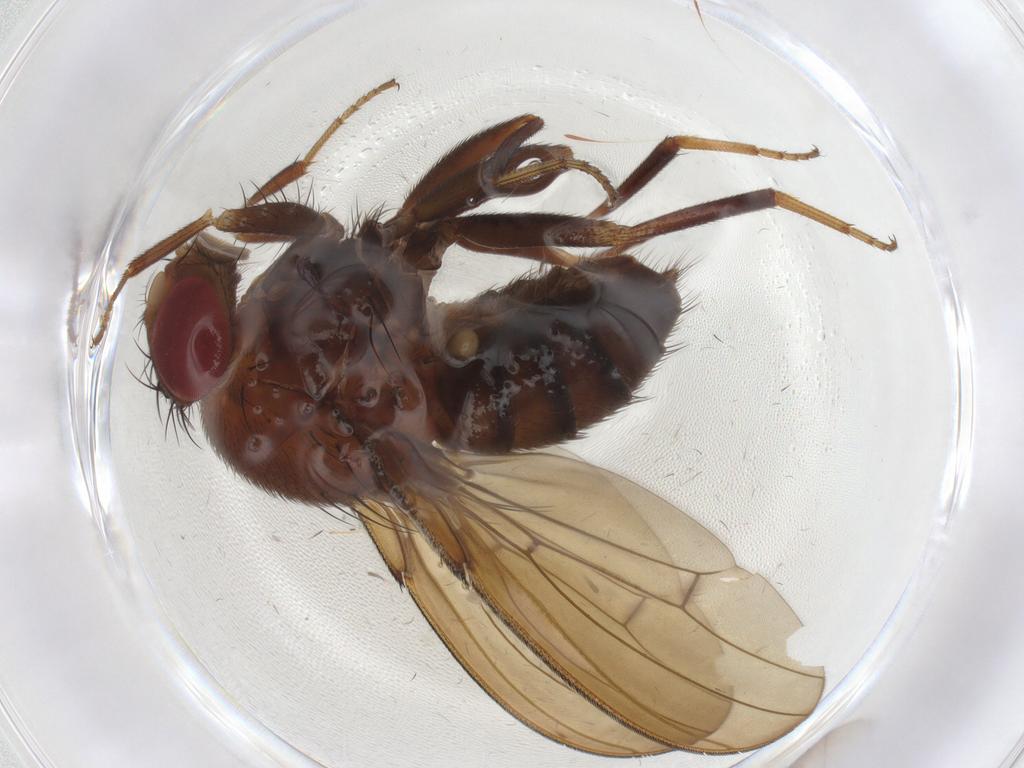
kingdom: Animalia
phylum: Arthropoda
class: Insecta
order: Diptera
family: Drosophilidae
